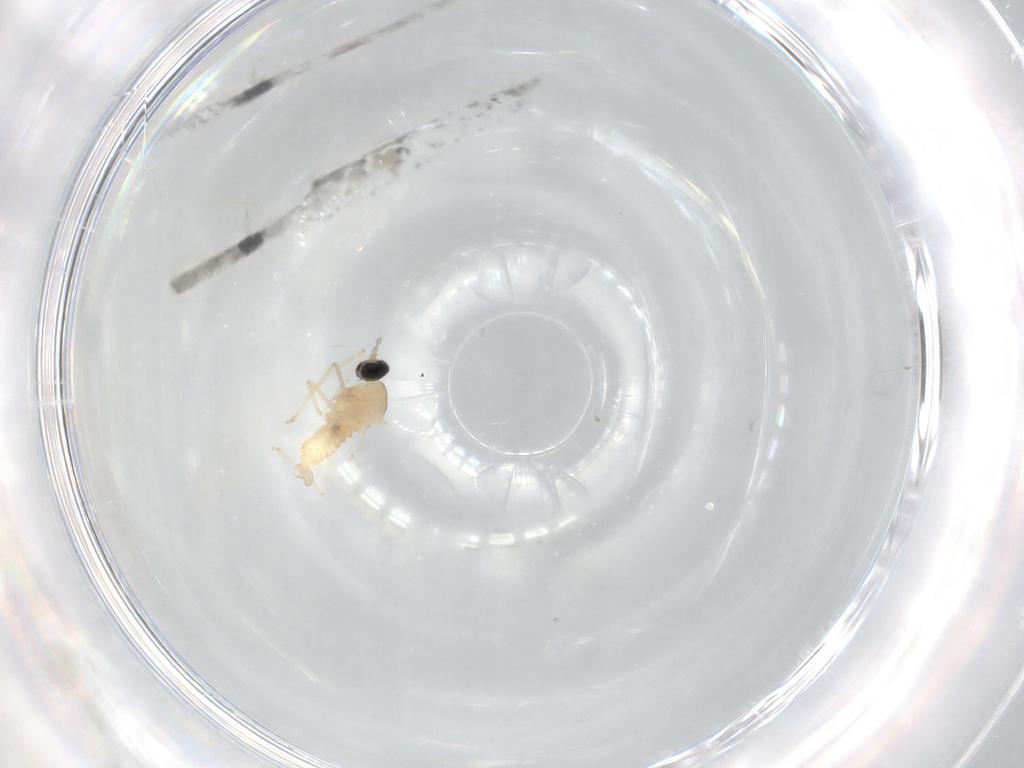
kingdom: Animalia
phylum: Arthropoda
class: Insecta
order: Diptera
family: Cecidomyiidae
